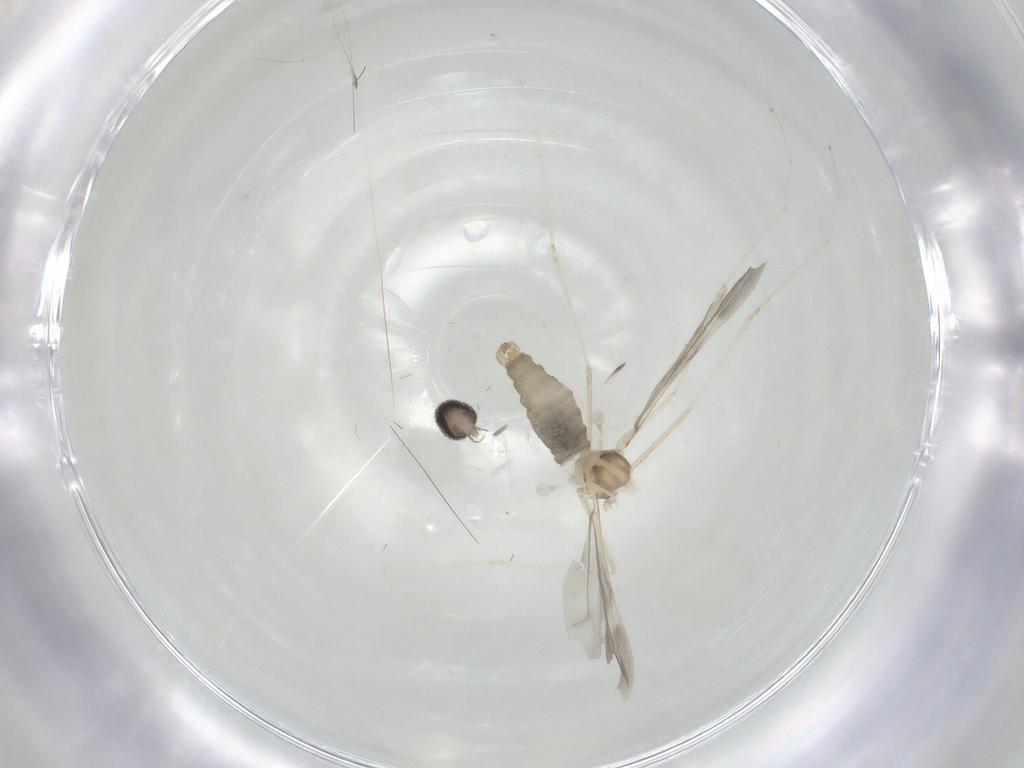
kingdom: Animalia
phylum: Arthropoda
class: Insecta
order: Diptera
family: Cecidomyiidae
